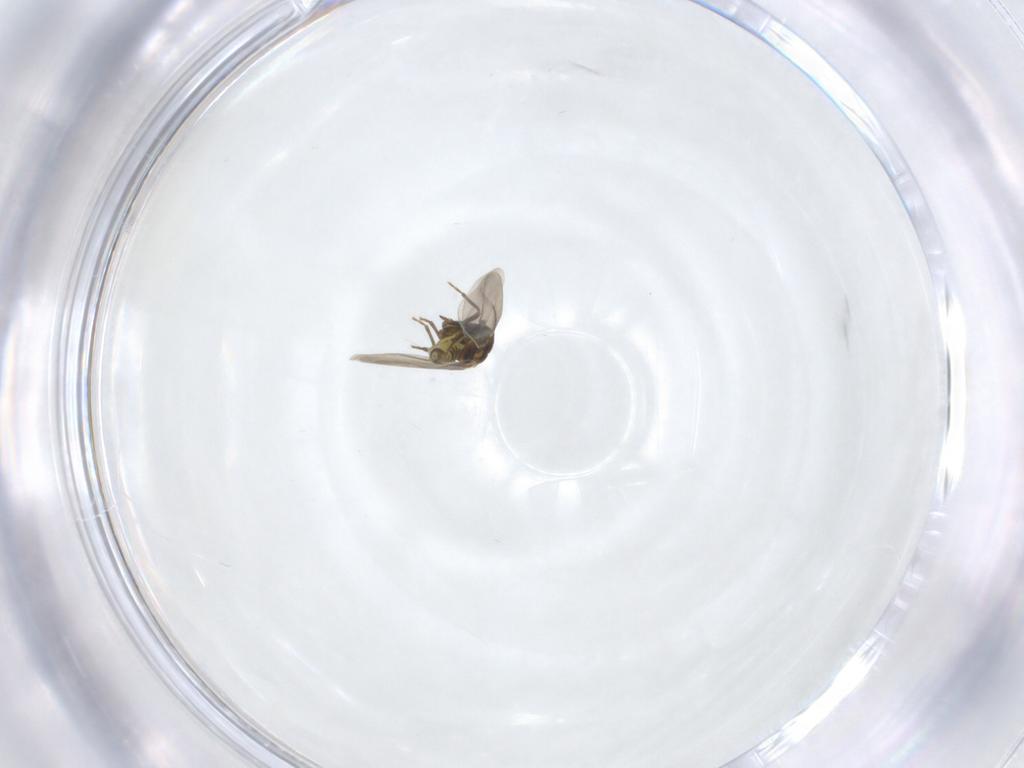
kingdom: Animalia
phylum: Arthropoda
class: Insecta
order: Hemiptera
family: Aleyrodidae
